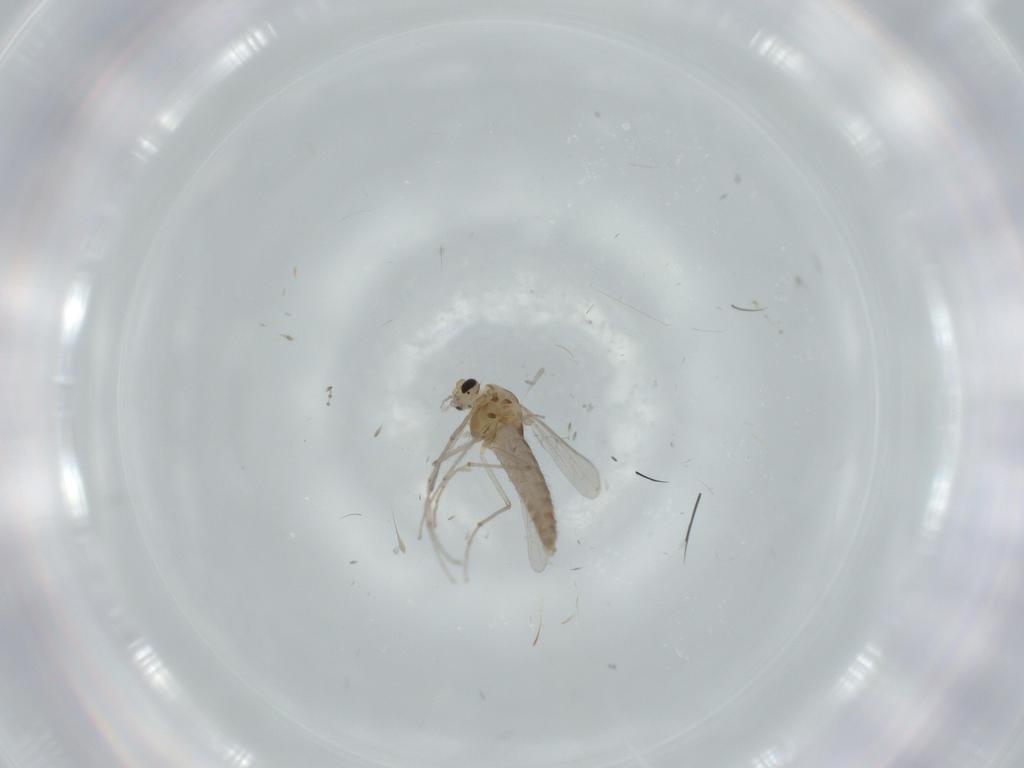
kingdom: Animalia
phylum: Arthropoda
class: Insecta
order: Diptera
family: Chironomidae
